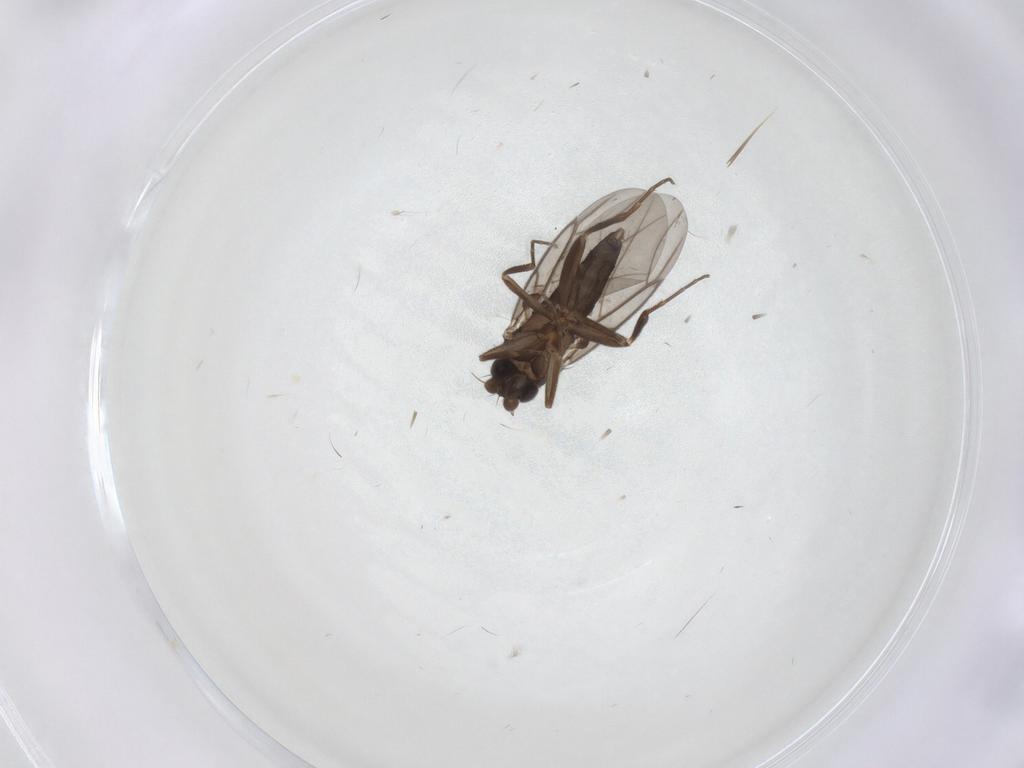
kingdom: Animalia
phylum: Arthropoda
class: Insecta
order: Diptera
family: Phoridae
